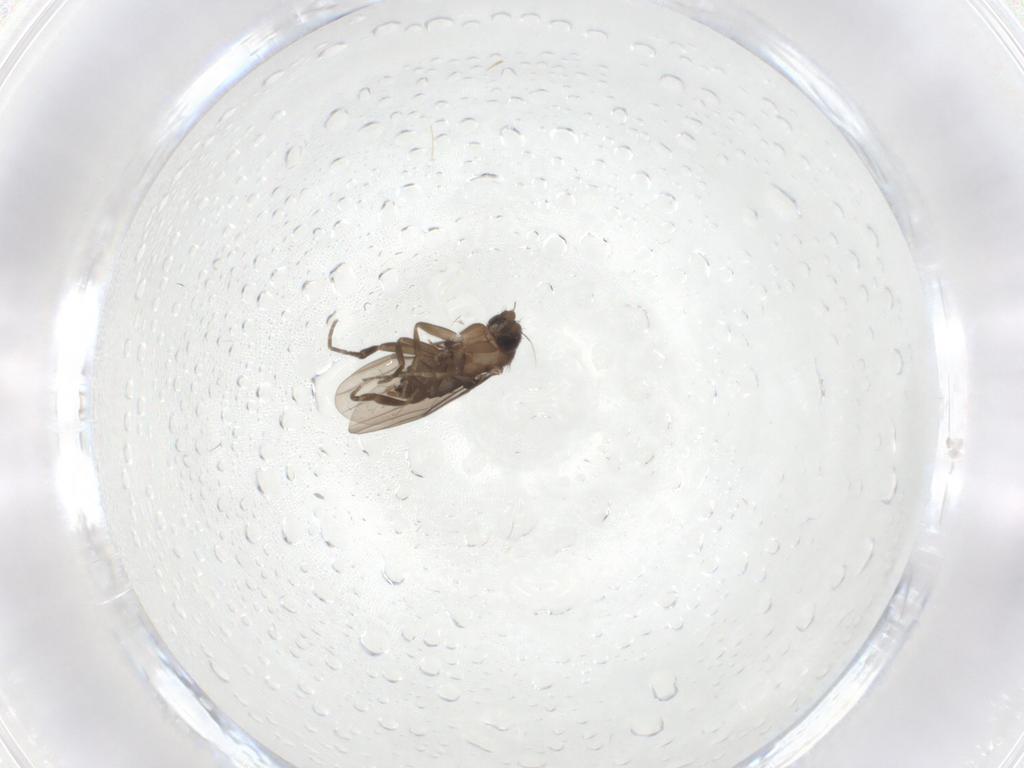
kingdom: Animalia
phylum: Arthropoda
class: Insecta
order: Diptera
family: Phoridae
